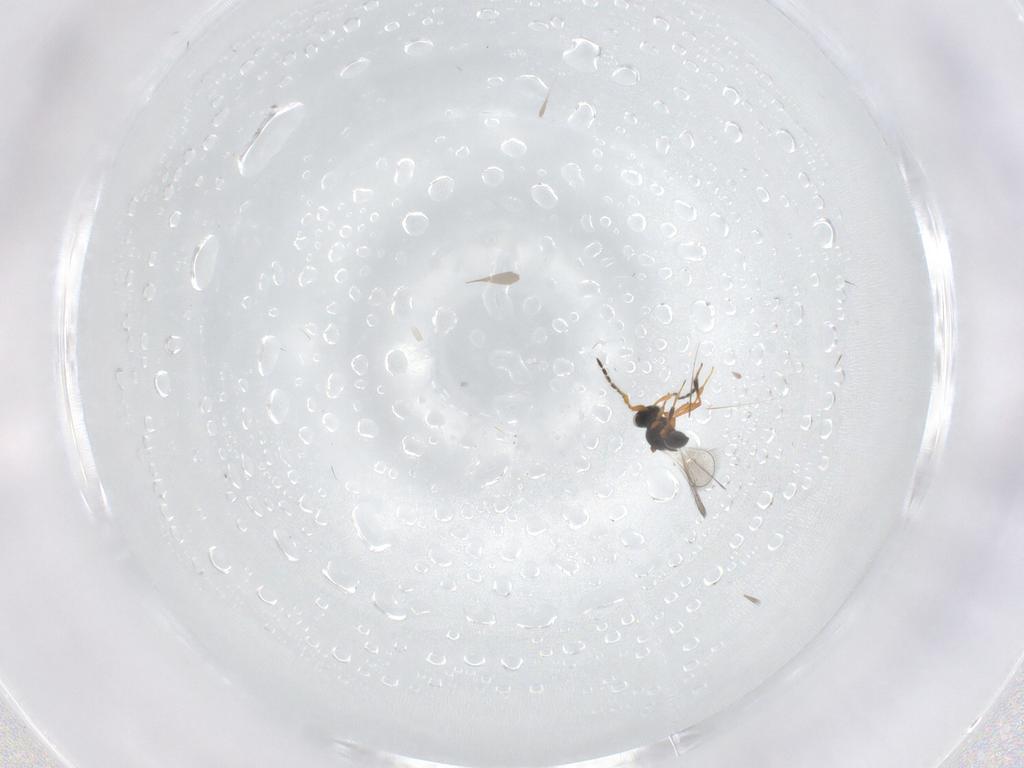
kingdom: Animalia
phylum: Arthropoda
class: Insecta
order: Hymenoptera
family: Platygastridae
